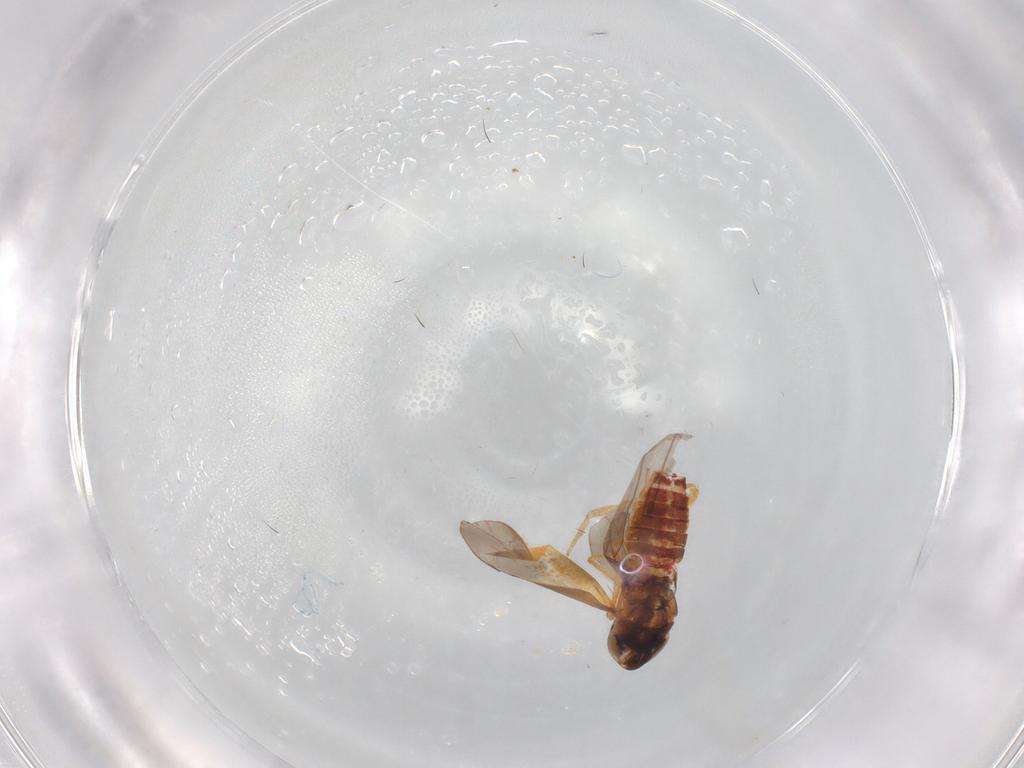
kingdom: Animalia
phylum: Arthropoda
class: Insecta
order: Hemiptera
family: Cicadellidae
